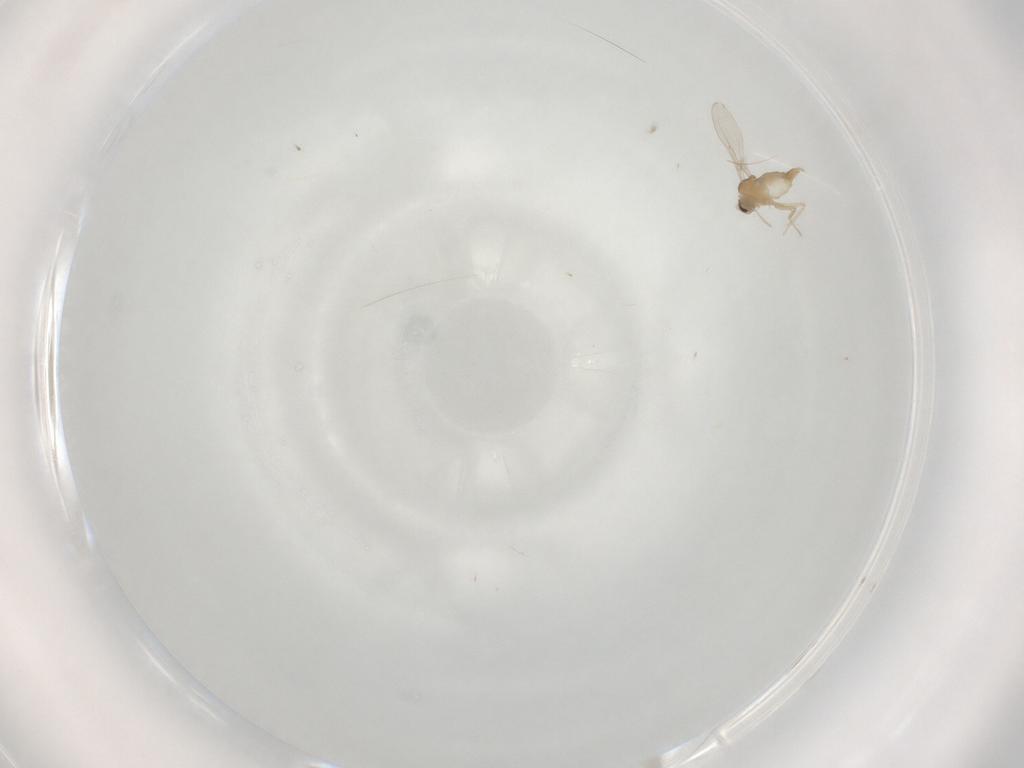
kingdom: Animalia
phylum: Arthropoda
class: Insecta
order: Diptera
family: Cecidomyiidae
